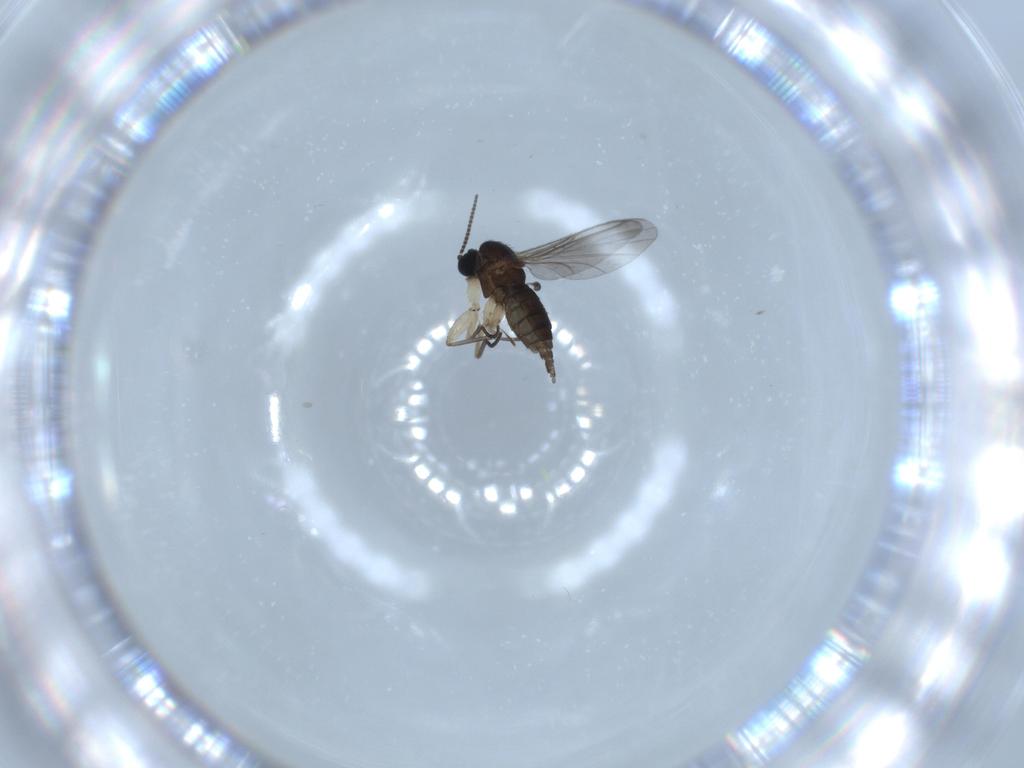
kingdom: Animalia
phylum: Arthropoda
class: Insecta
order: Diptera
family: Sciaridae
